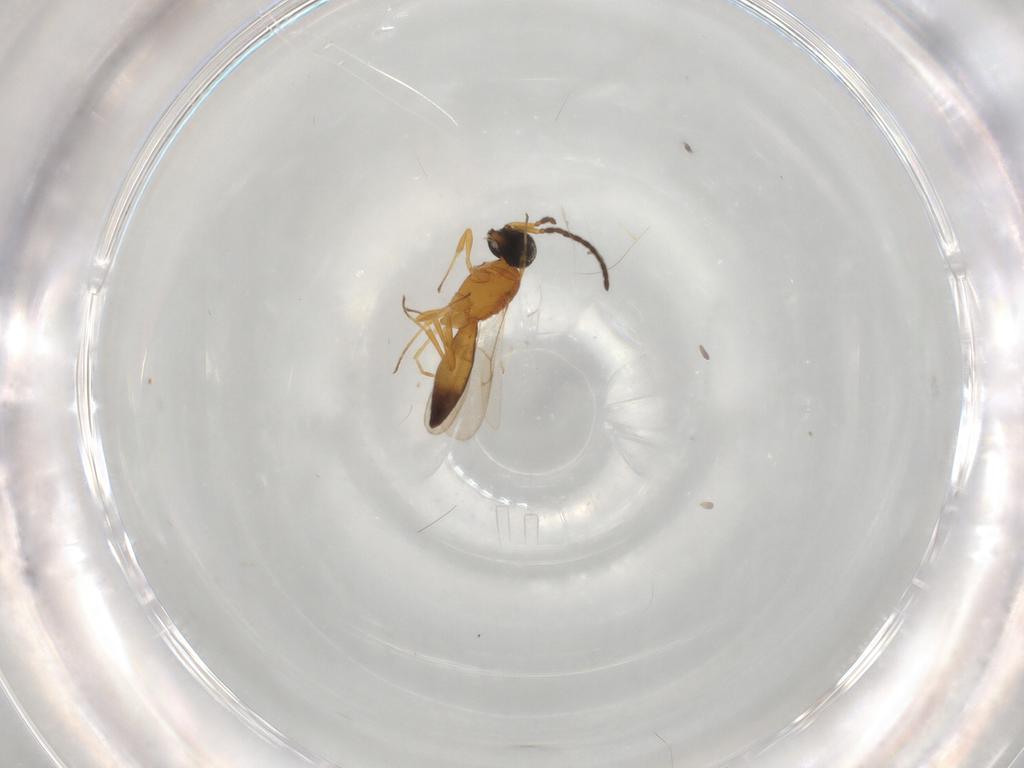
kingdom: Animalia
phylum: Arthropoda
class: Insecta
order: Hymenoptera
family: Scelionidae
